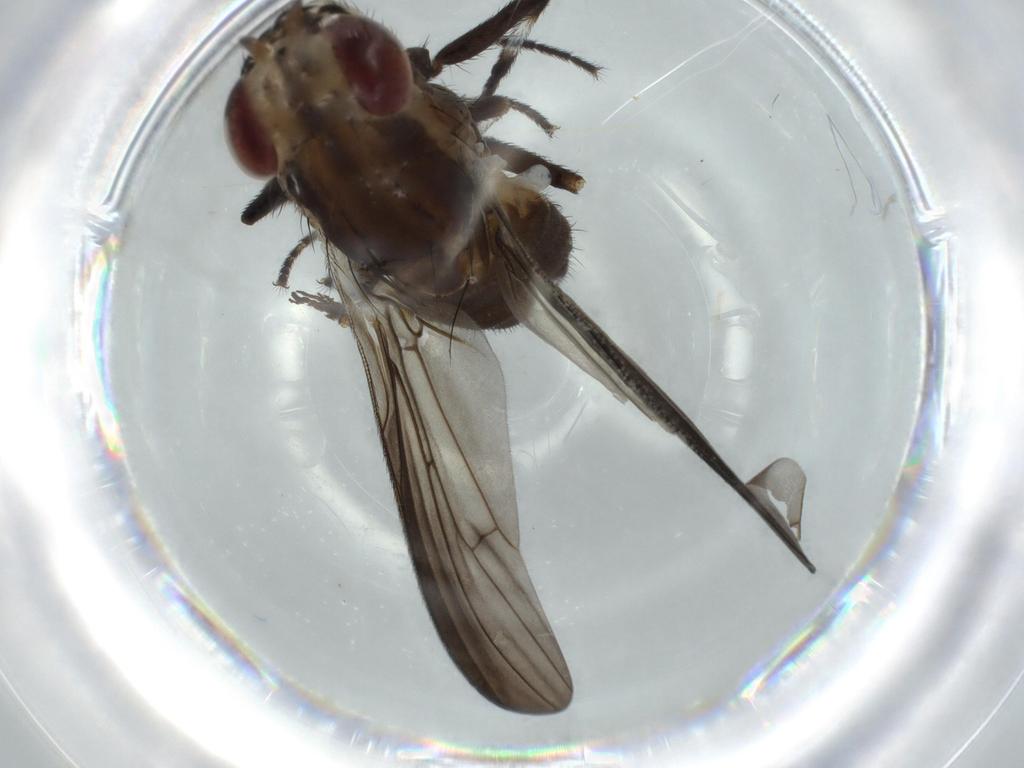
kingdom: Animalia
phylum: Arthropoda
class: Insecta
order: Diptera
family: Lauxaniidae
